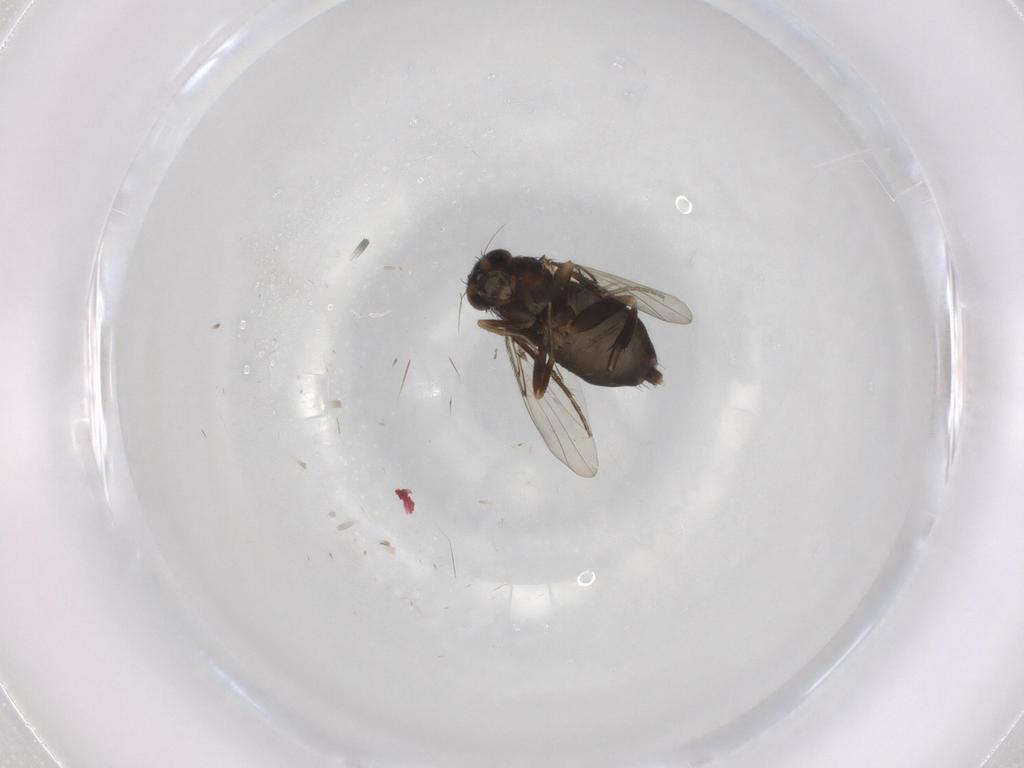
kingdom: Animalia
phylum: Arthropoda
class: Insecta
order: Diptera
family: Phoridae
